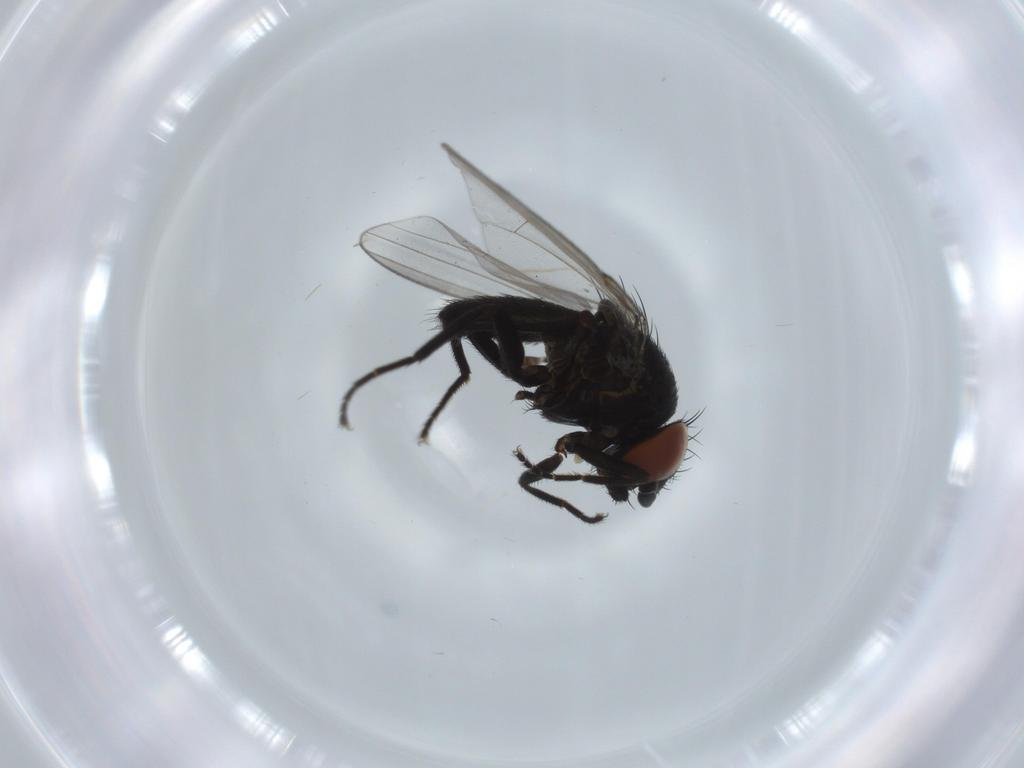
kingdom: Animalia
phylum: Arthropoda
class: Insecta
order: Diptera
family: Milichiidae
